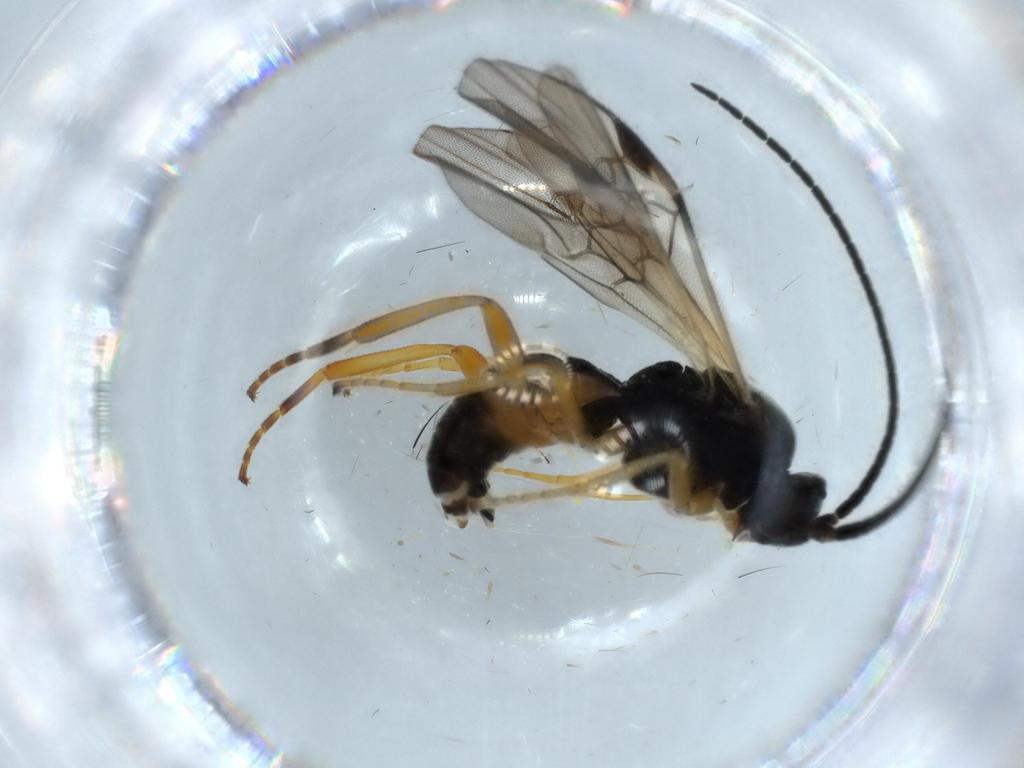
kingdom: Animalia
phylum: Arthropoda
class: Insecta
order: Hymenoptera
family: Braconidae
